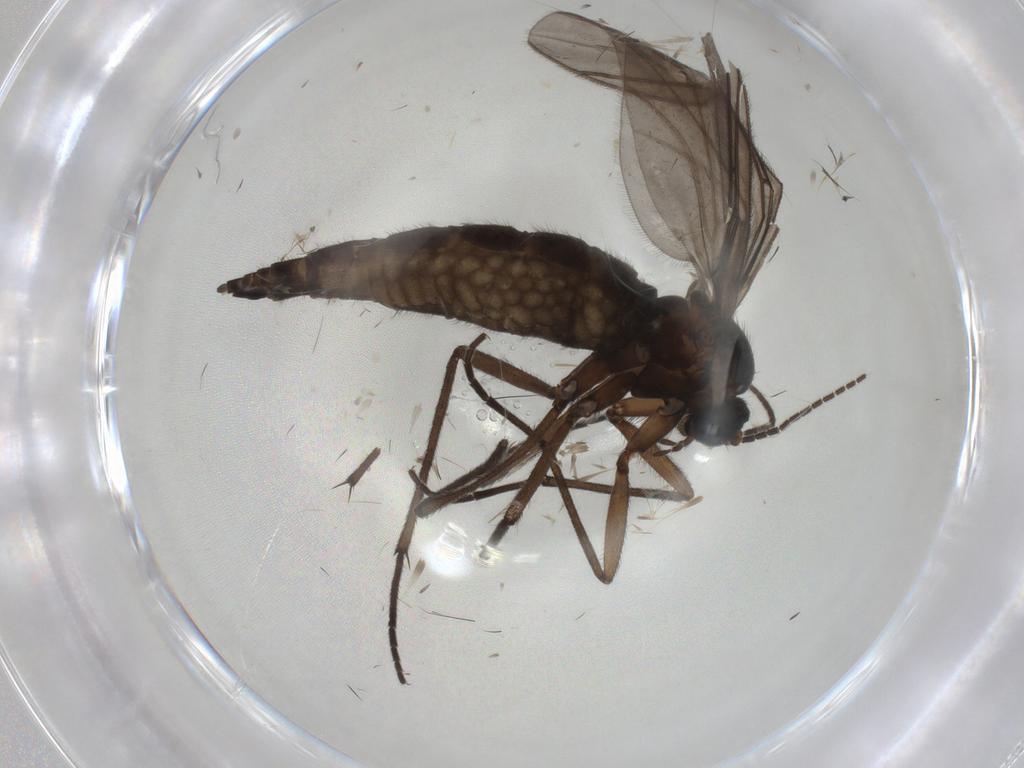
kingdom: Animalia
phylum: Arthropoda
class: Insecta
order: Diptera
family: Sciaridae
